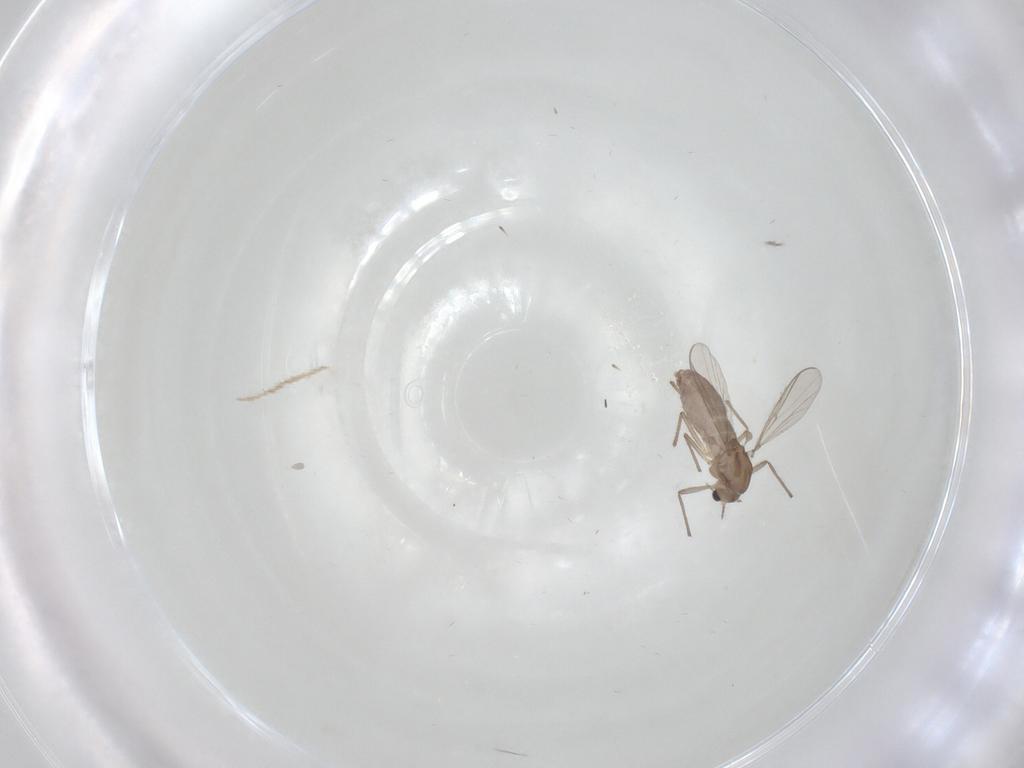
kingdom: Animalia
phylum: Arthropoda
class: Insecta
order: Diptera
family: Chironomidae
